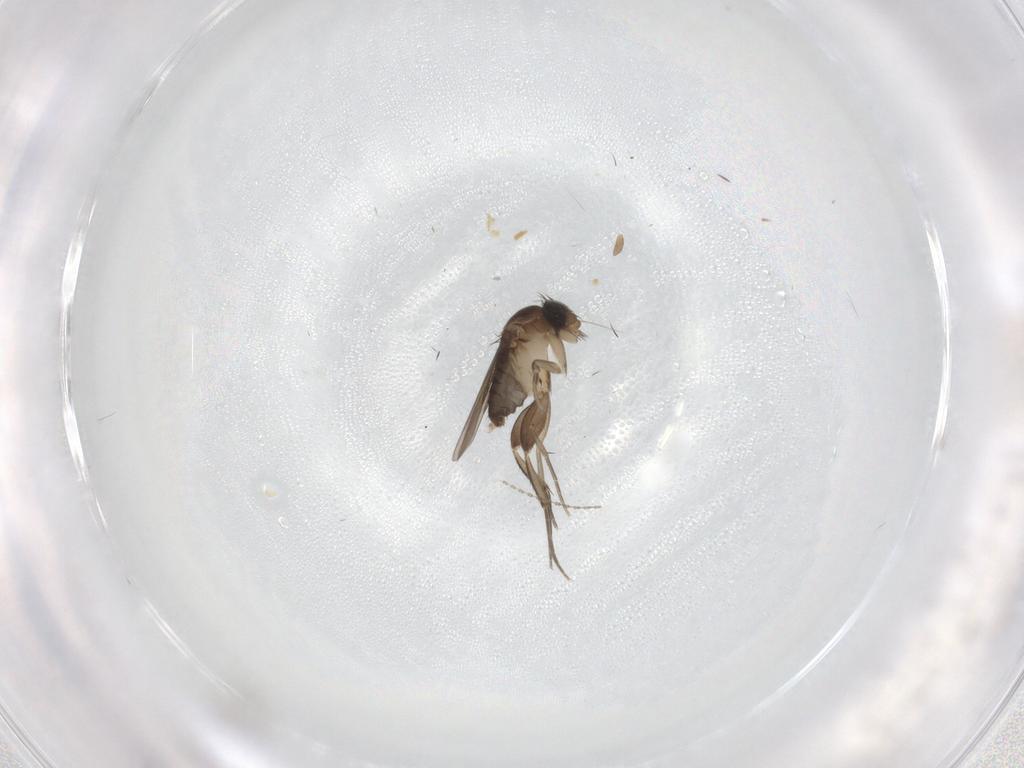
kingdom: Animalia
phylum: Arthropoda
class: Insecta
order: Diptera
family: Phoridae
